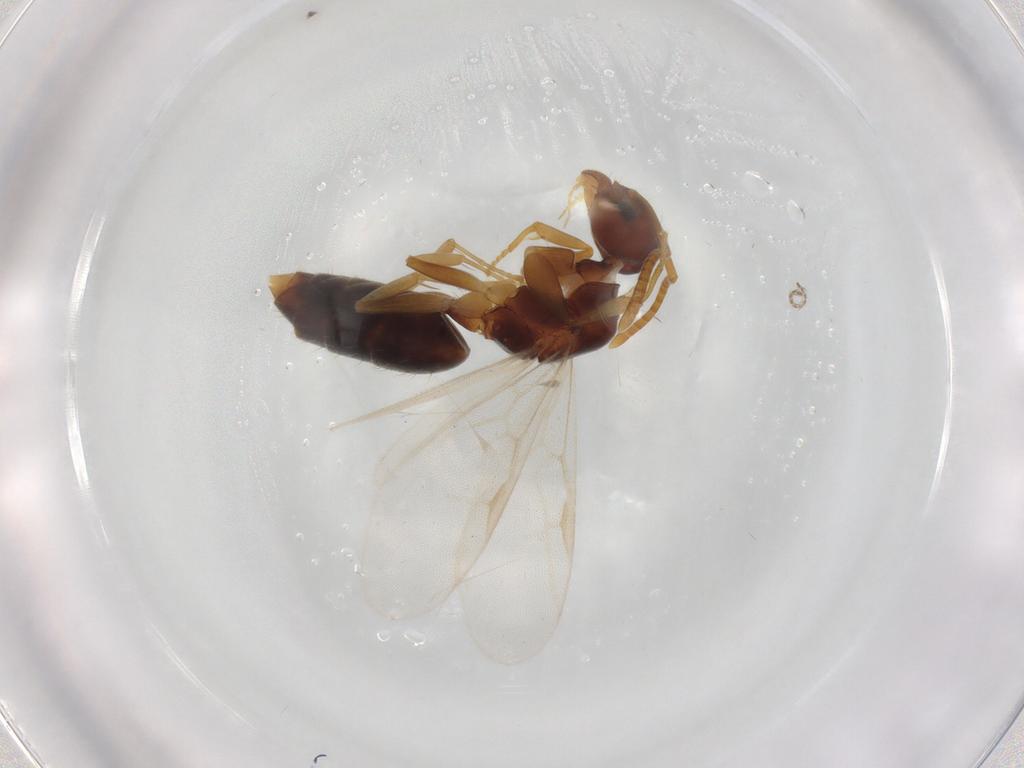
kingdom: Animalia
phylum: Arthropoda
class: Insecta
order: Hymenoptera
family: Formicidae
